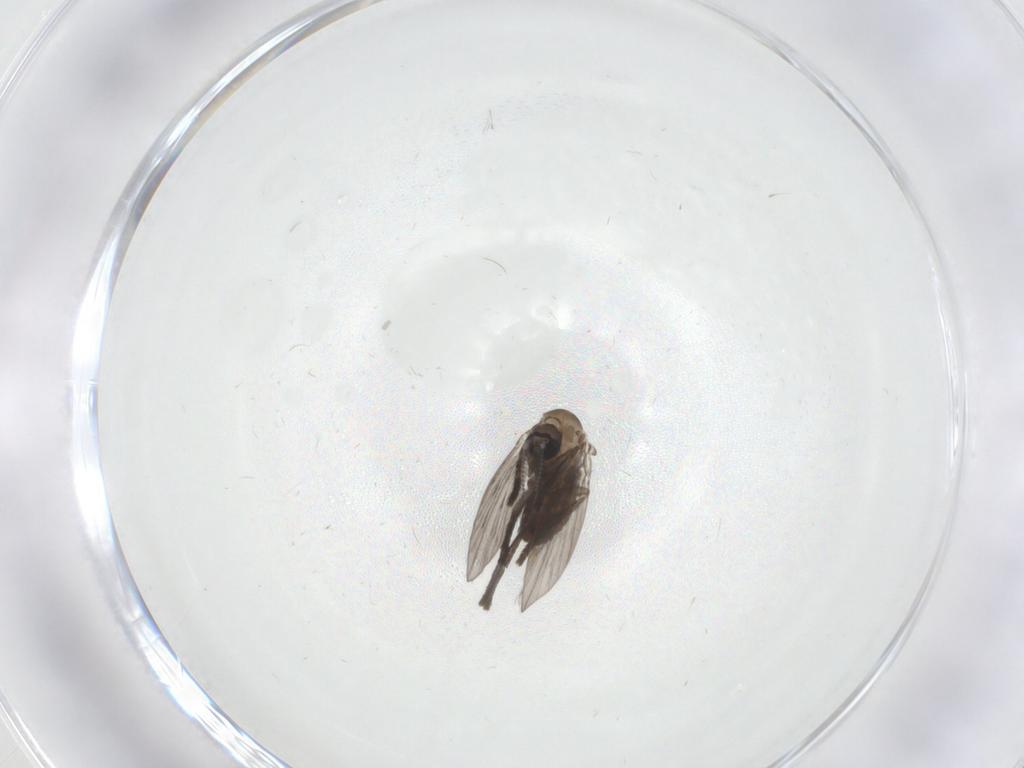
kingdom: Animalia
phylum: Arthropoda
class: Insecta
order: Diptera
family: Psychodidae
